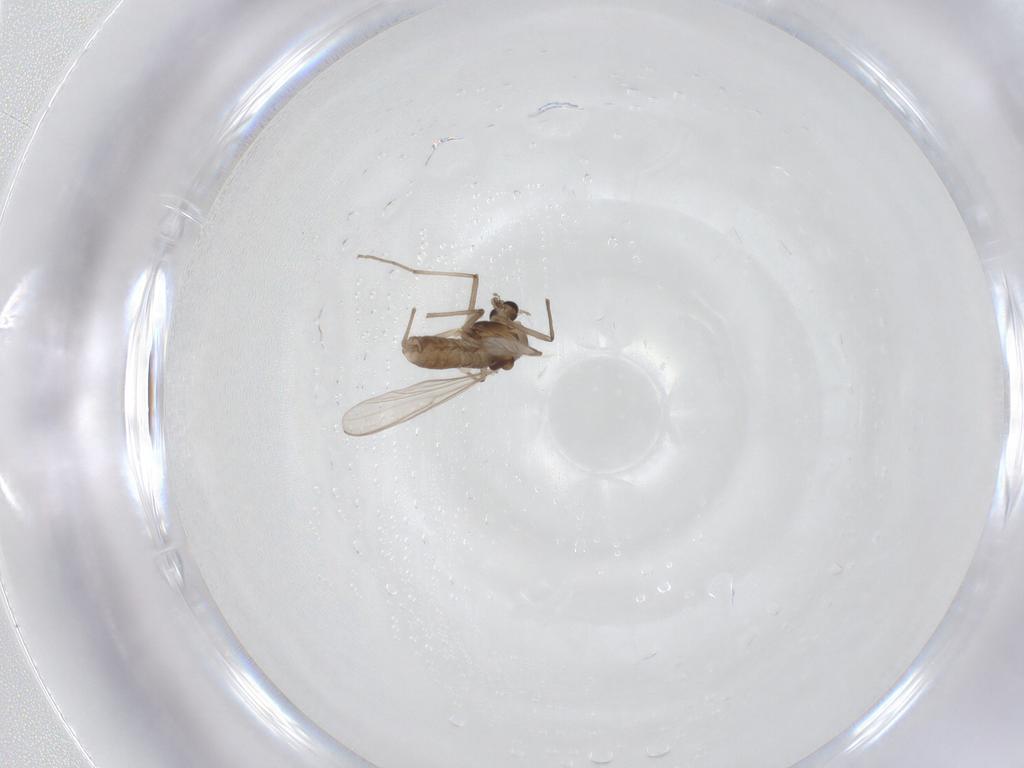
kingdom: Animalia
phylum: Arthropoda
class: Insecta
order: Diptera
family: Chironomidae
